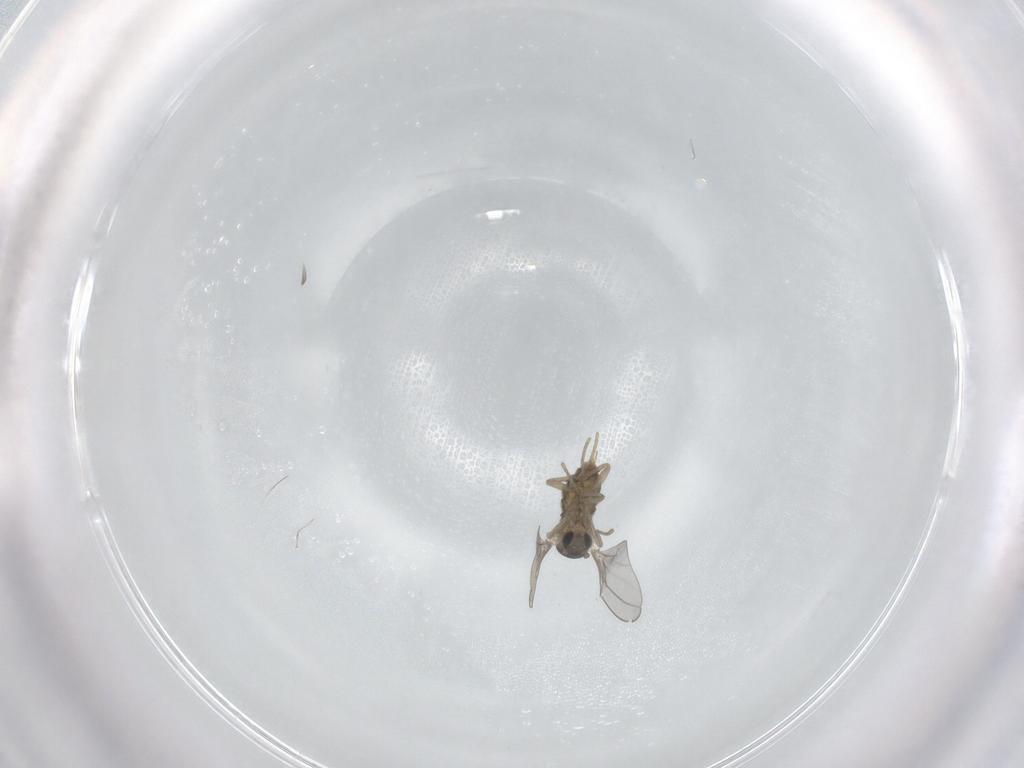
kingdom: Animalia
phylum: Arthropoda
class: Insecta
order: Diptera
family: Cecidomyiidae
